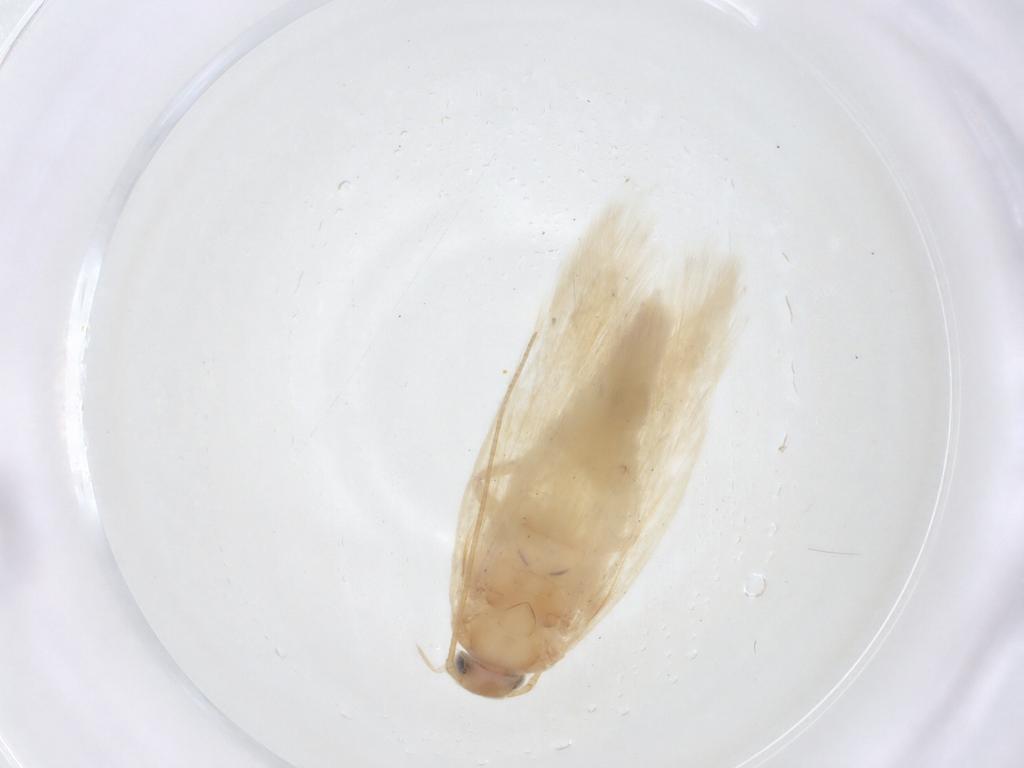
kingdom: Animalia
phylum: Arthropoda
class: Insecta
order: Lepidoptera
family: Gelechiidae
